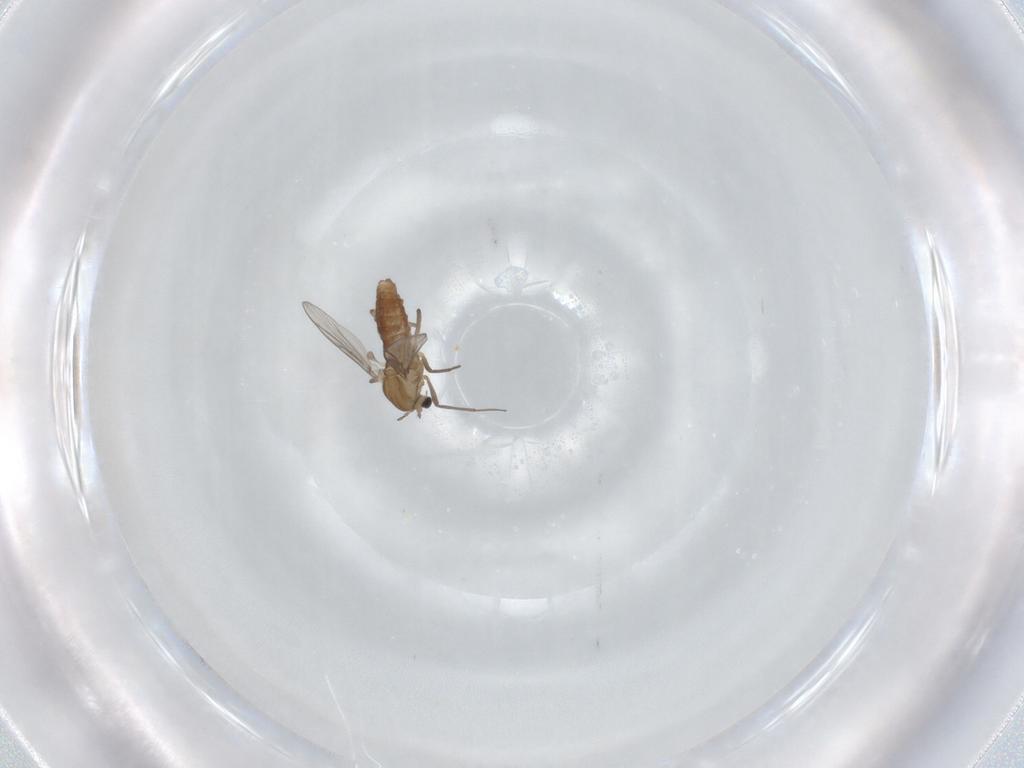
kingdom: Animalia
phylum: Arthropoda
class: Insecta
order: Diptera
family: Chironomidae
